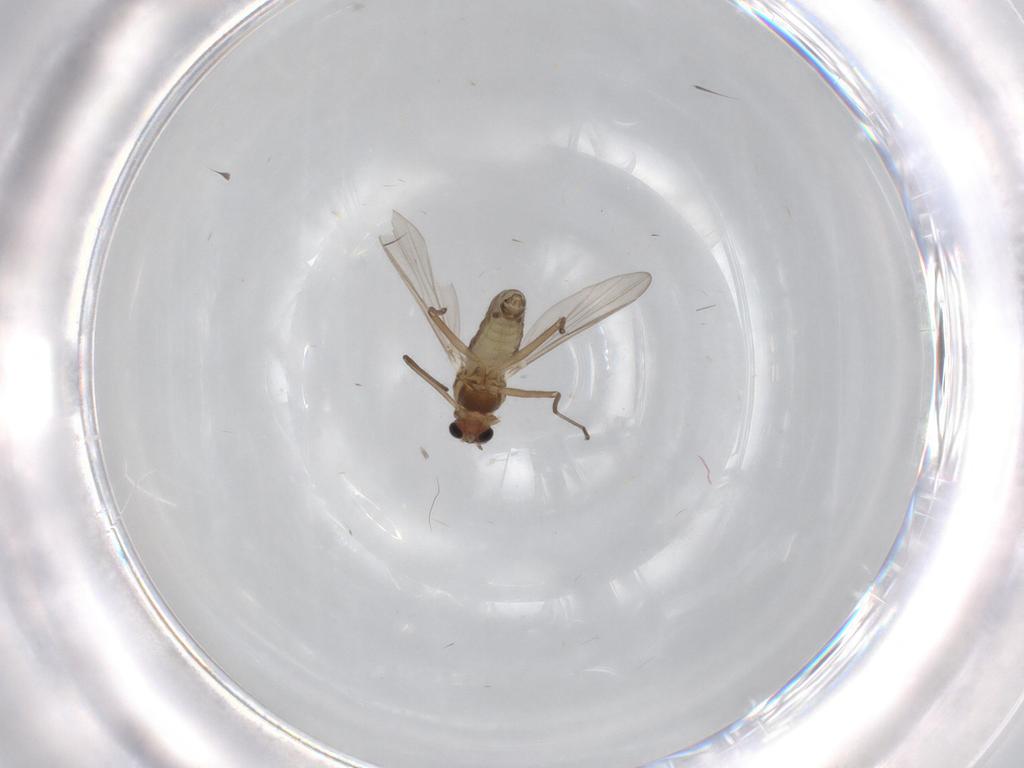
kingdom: Animalia
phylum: Arthropoda
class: Insecta
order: Diptera
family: Chironomidae
